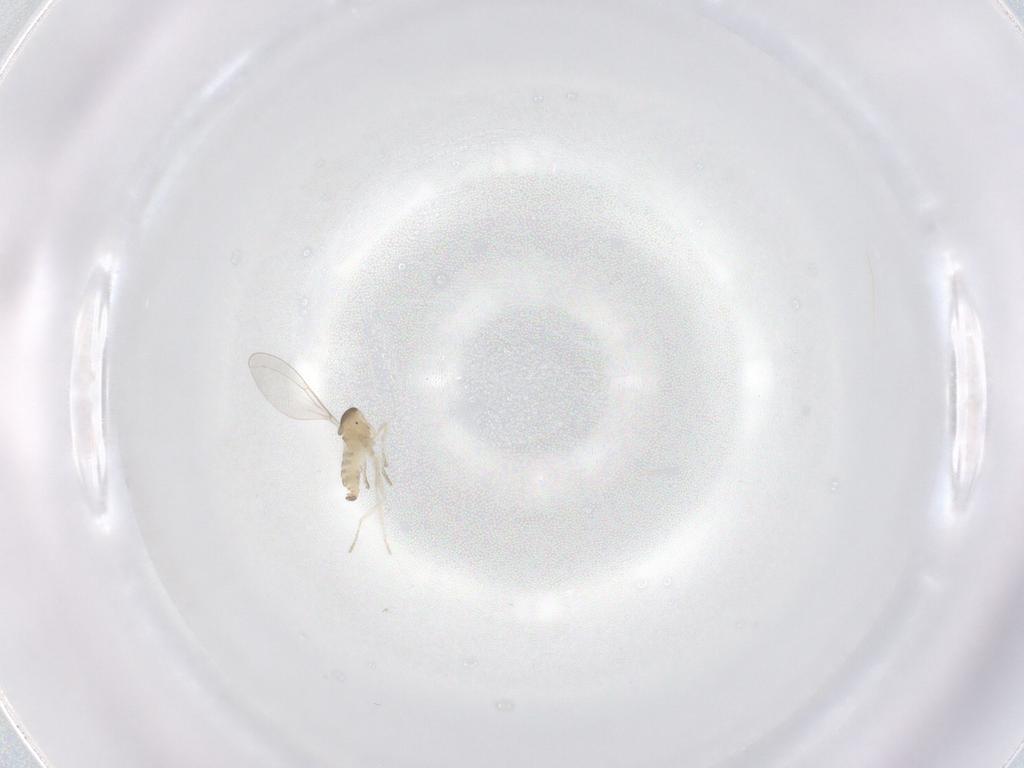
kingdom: Animalia
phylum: Arthropoda
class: Insecta
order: Diptera
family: Cecidomyiidae
